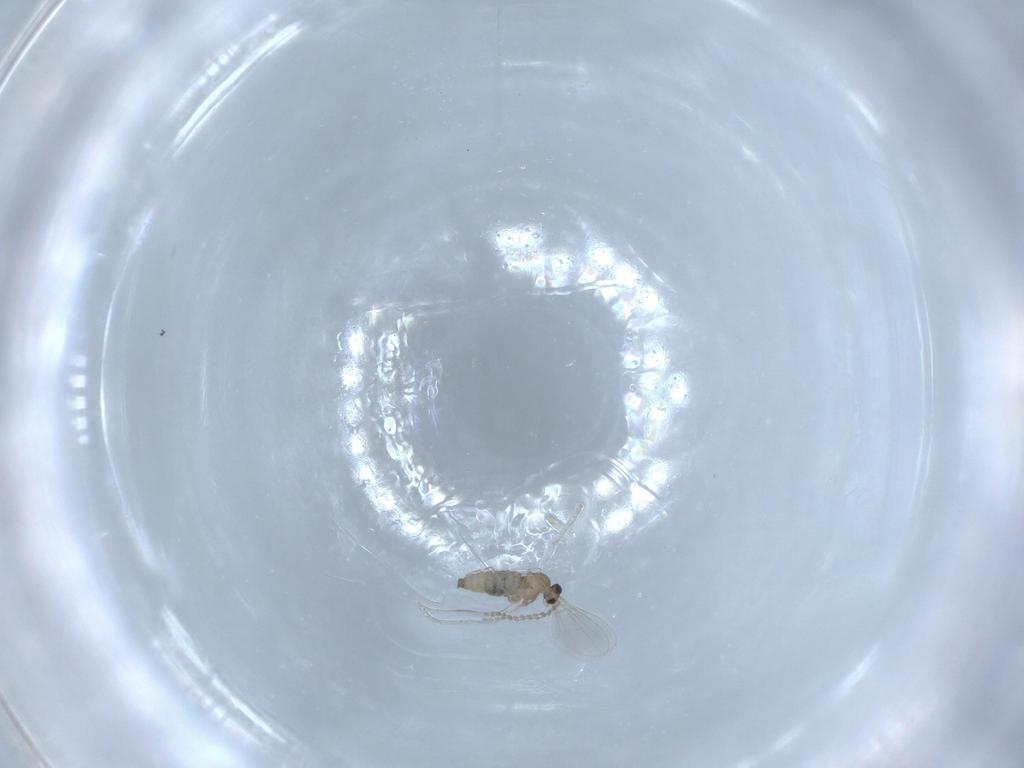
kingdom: Animalia
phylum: Arthropoda
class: Insecta
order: Diptera
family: Cecidomyiidae
